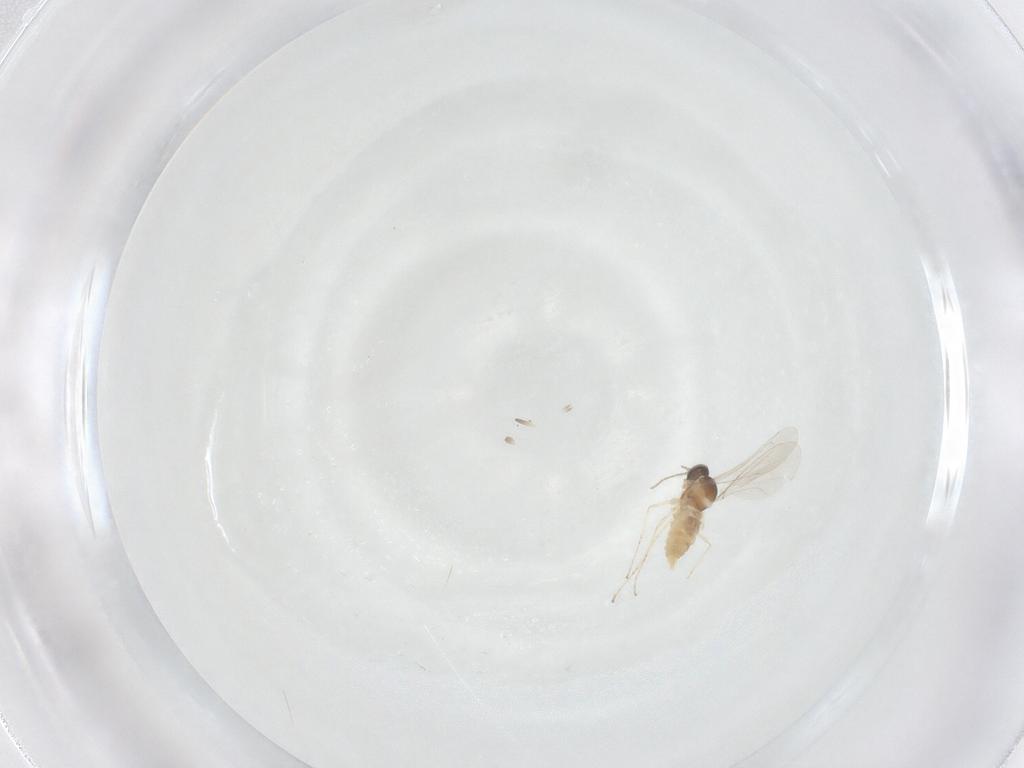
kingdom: Animalia
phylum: Arthropoda
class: Insecta
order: Diptera
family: Cecidomyiidae
